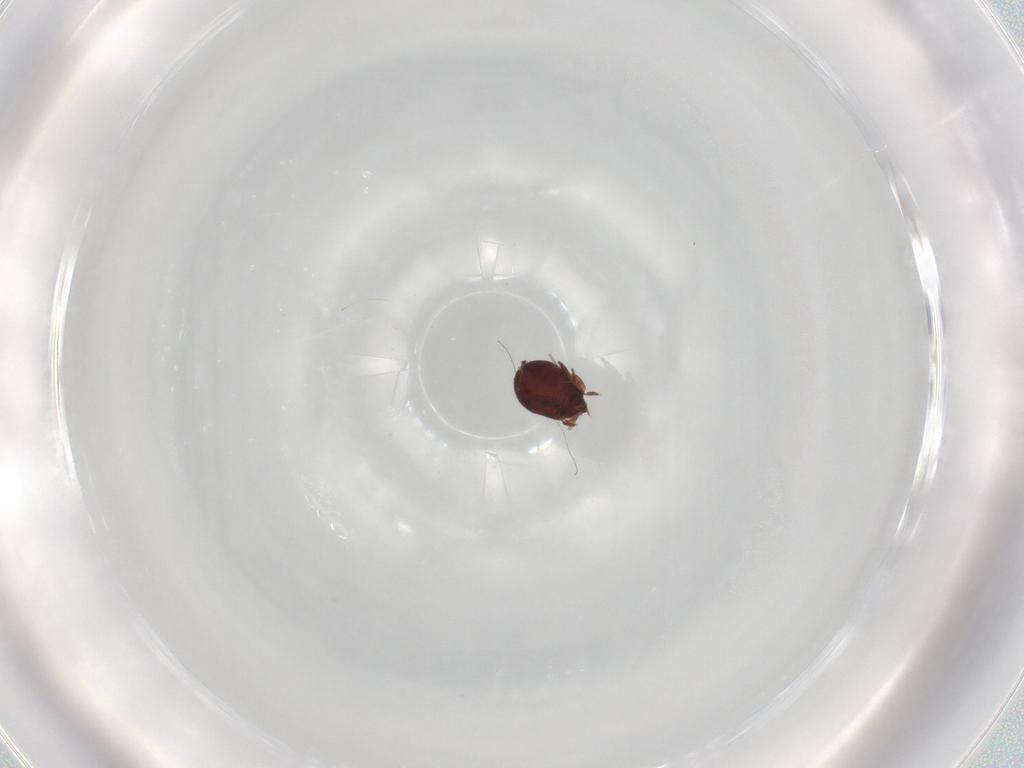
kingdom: Animalia
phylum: Arthropoda
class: Arachnida
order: Sarcoptiformes
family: Humerobatidae
